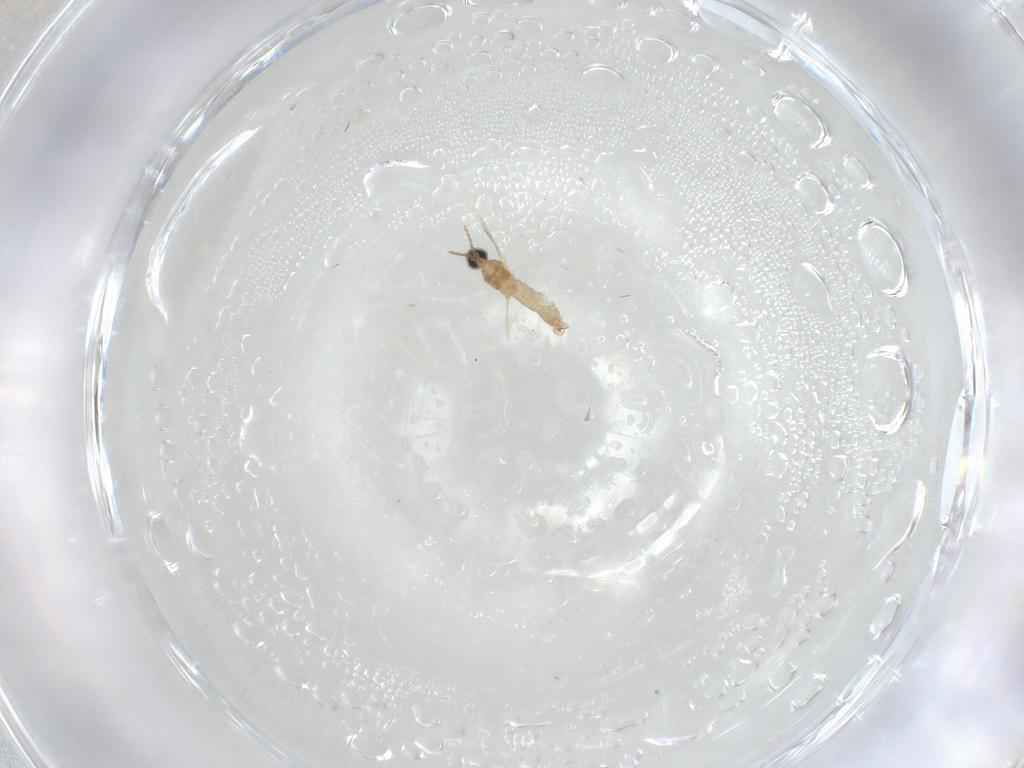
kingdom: Animalia
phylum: Arthropoda
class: Insecta
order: Diptera
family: Cecidomyiidae
